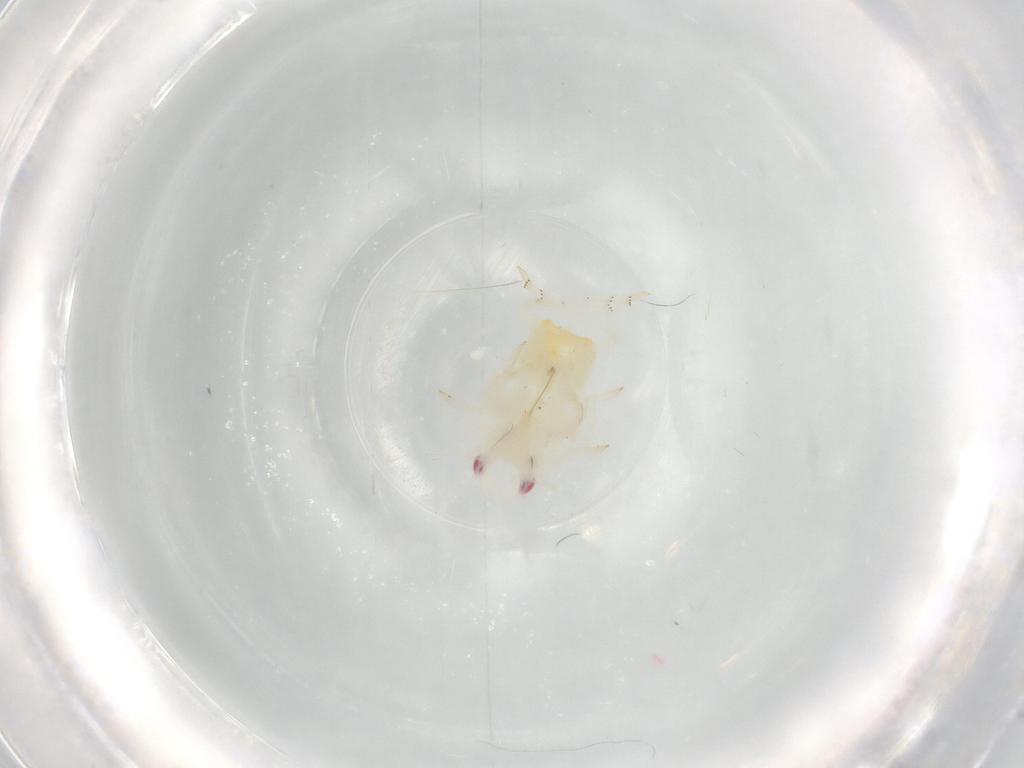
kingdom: Animalia
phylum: Arthropoda
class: Insecta
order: Hemiptera
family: Flatidae
